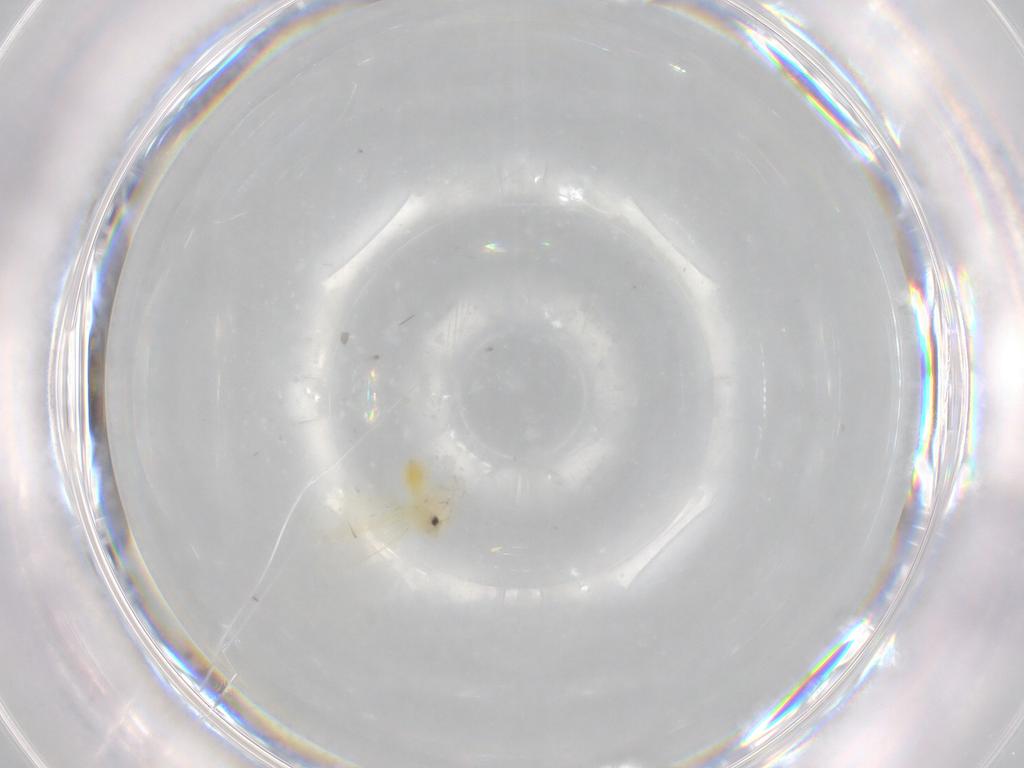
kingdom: Animalia
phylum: Arthropoda
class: Insecta
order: Hemiptera
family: Aleyrodidae
